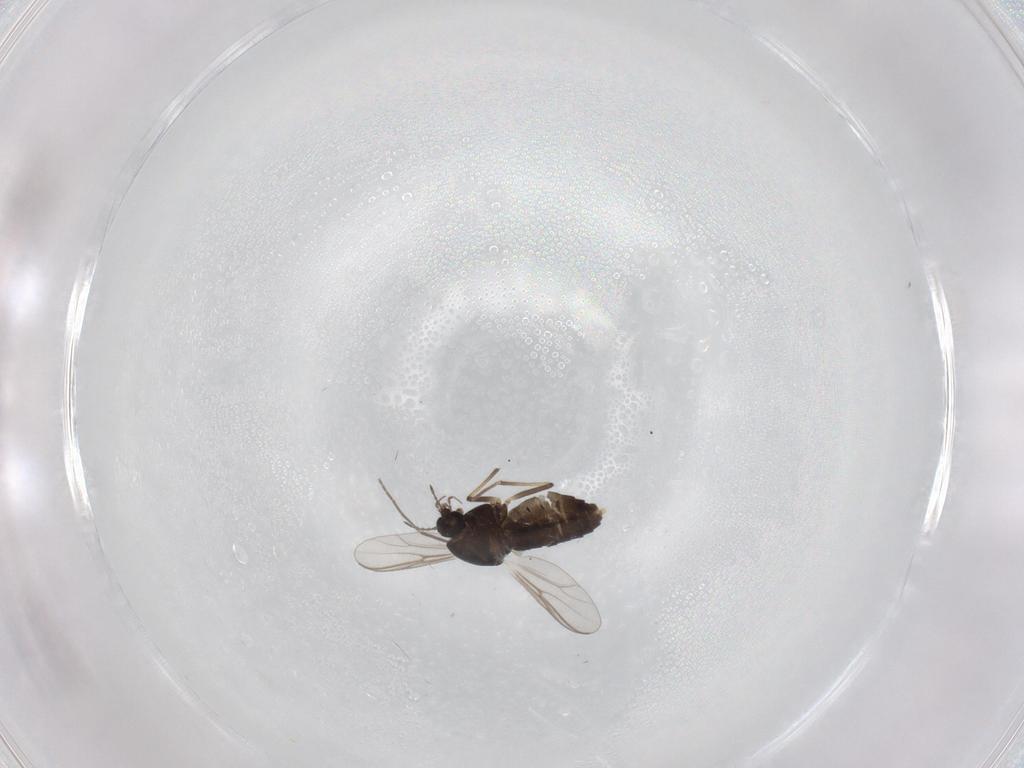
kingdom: Animalia
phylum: Arthropoda
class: Insecta
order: Diptera
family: Chironomidae
